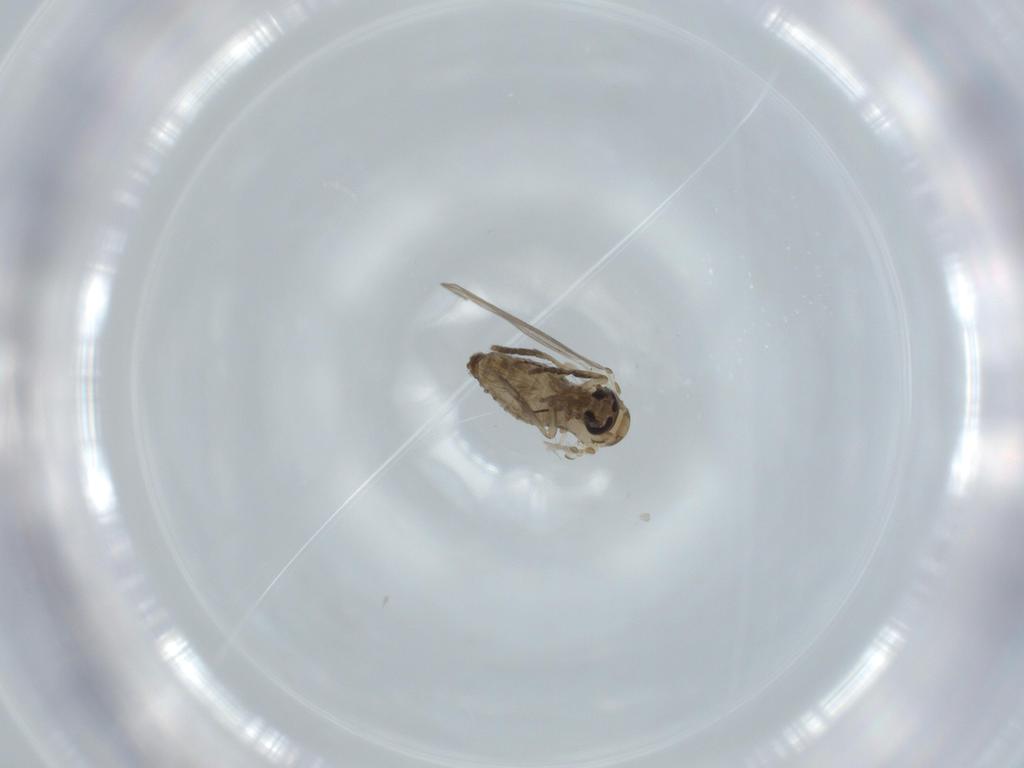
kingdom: Animalia
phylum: Arthropoda
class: Insecta
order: Diptera
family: Psychodidae
